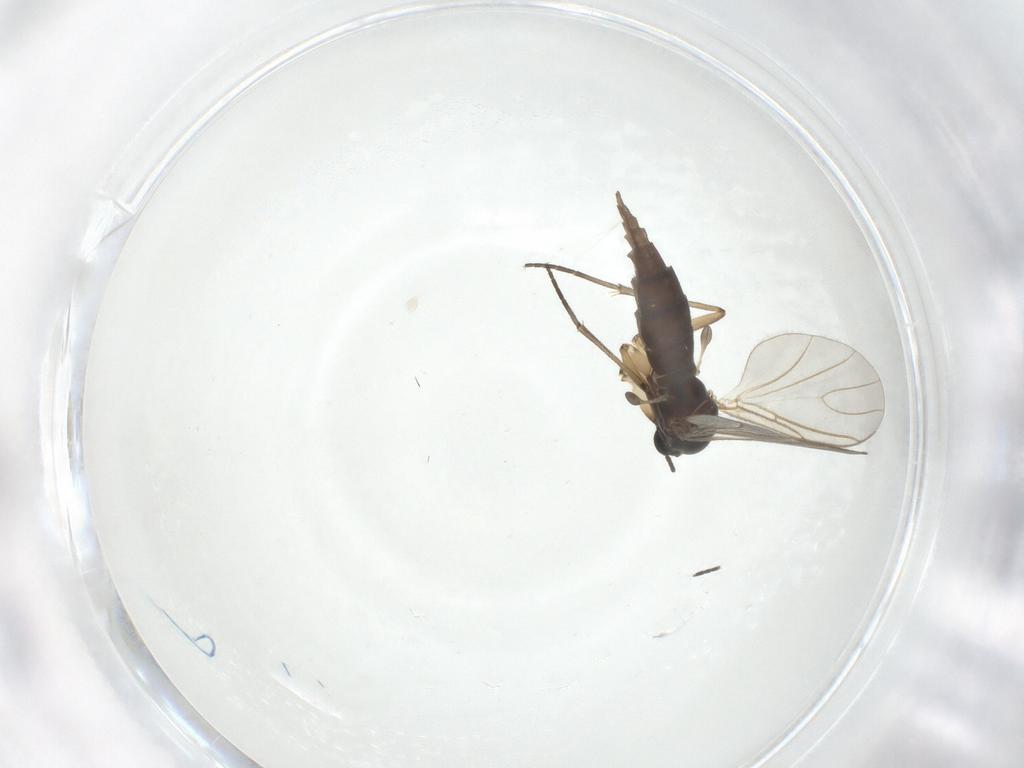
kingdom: Animalia
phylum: Arthropoda
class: Insecta
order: Diptera
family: Sciaridae
